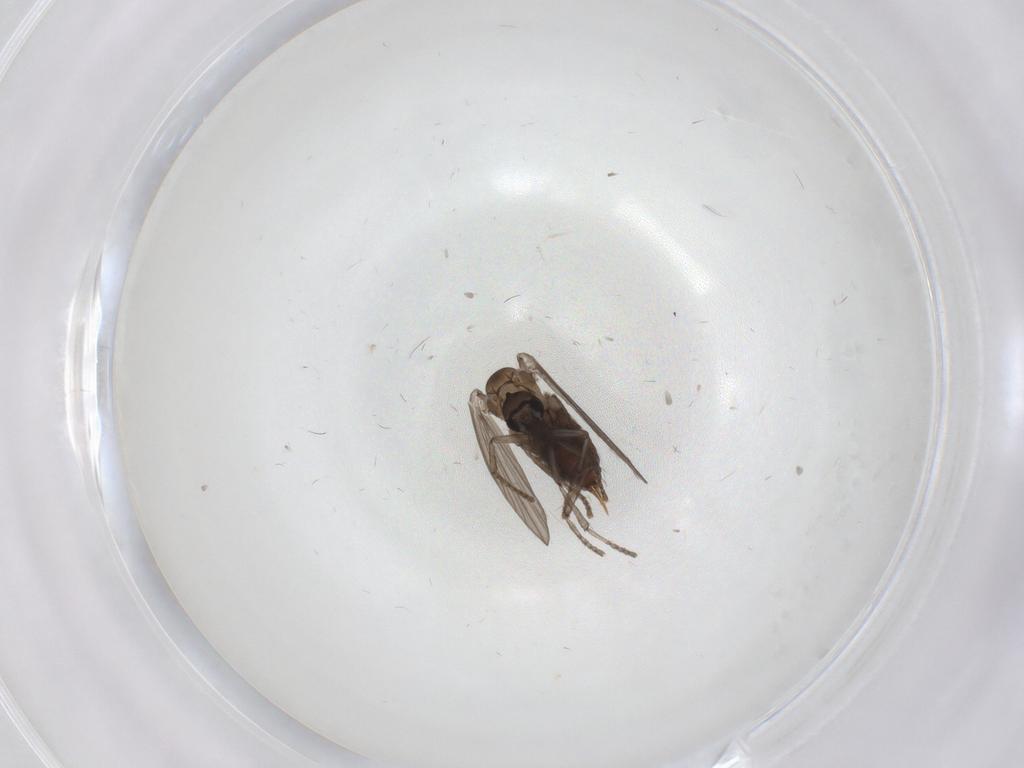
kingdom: Animalia
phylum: Arthropoda
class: Insecta
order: Diptera
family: Psychodidae
